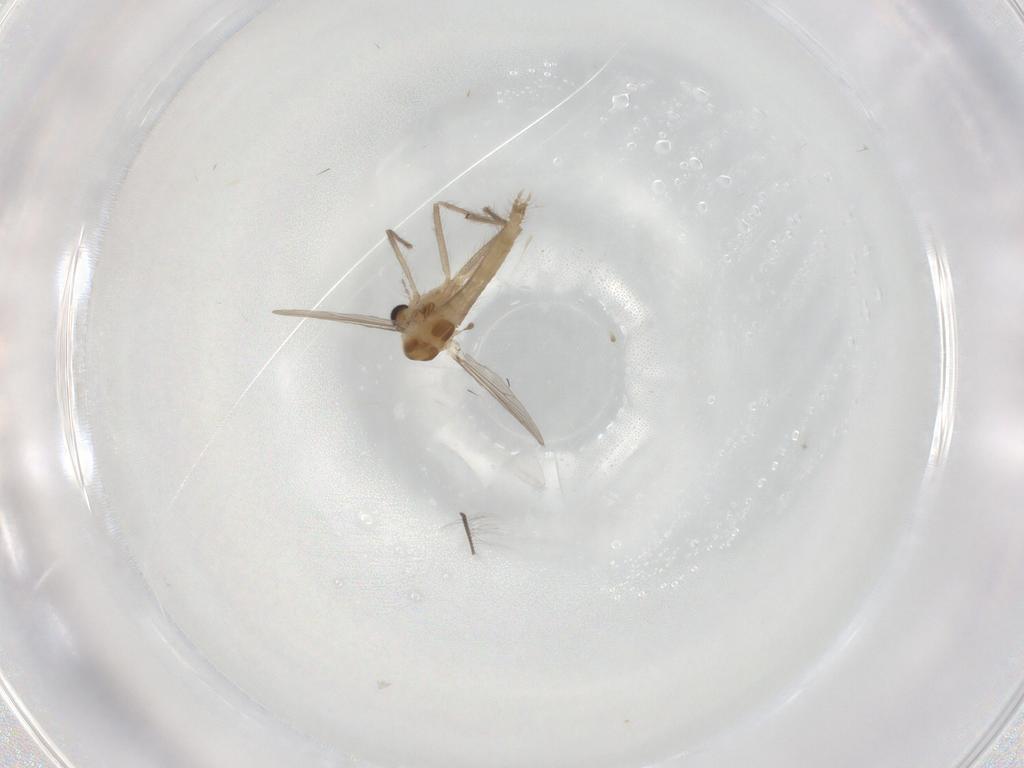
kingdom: Animalia
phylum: Arthropoda
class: Insecta
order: Diptera
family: Chironomidae
